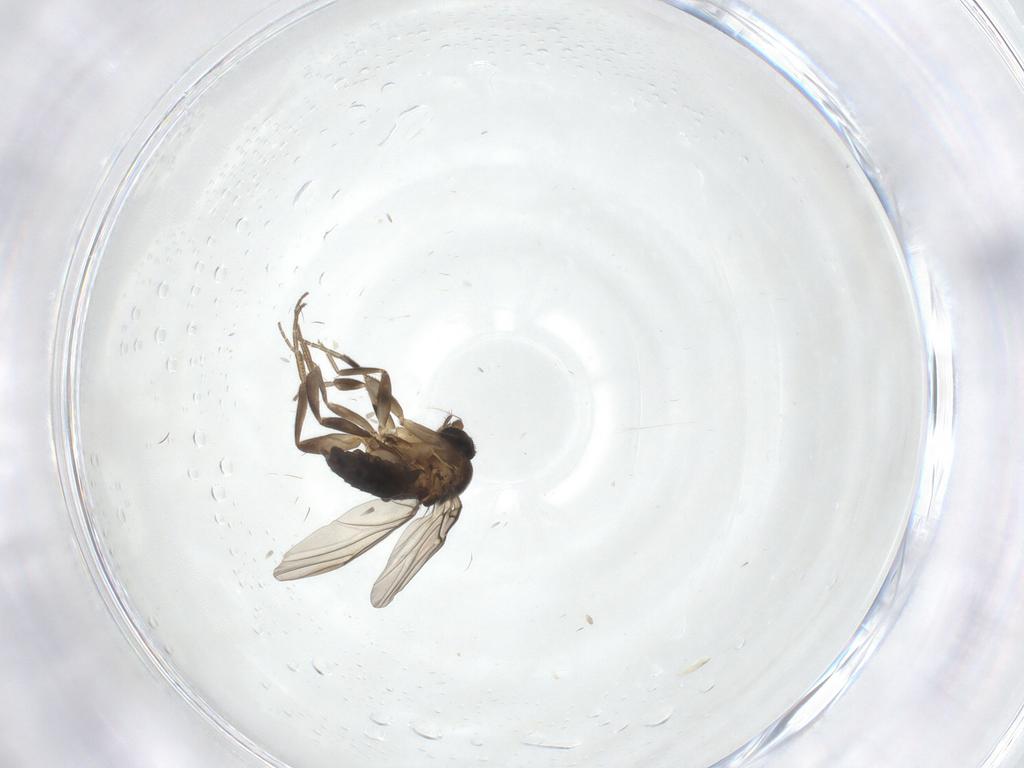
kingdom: Animalia
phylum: Arthropoda
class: Insecta
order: Diptera
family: Phoridae
